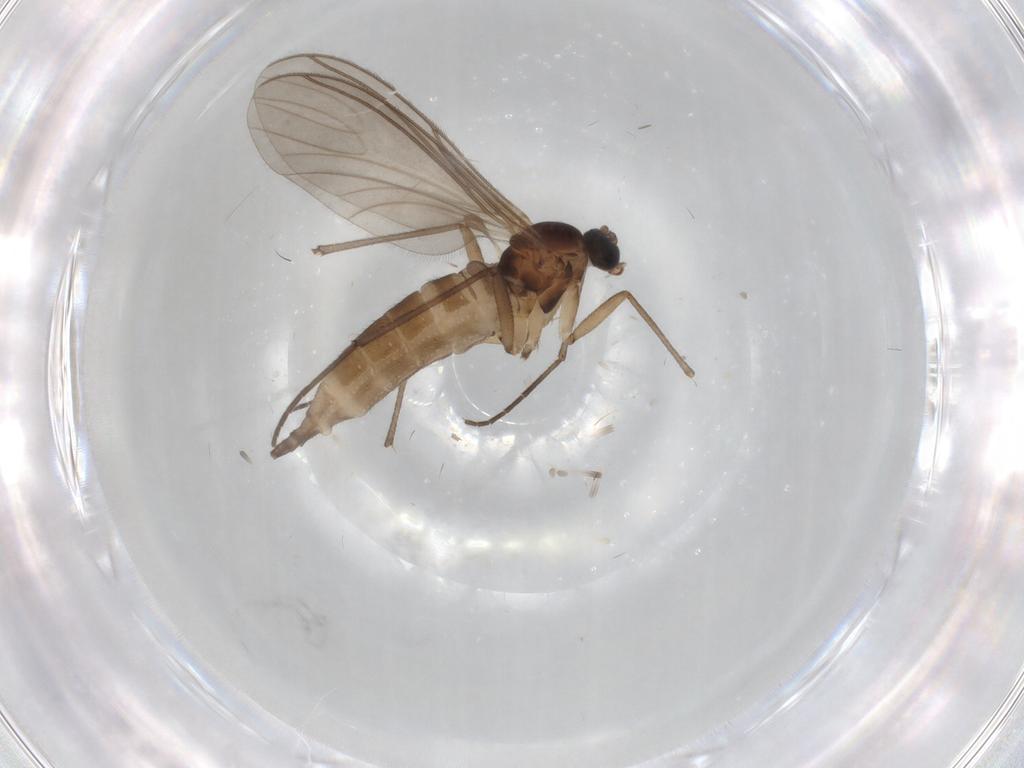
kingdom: Animalia
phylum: Arthropoda
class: Insecta
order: Diptera
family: Sciaridae
